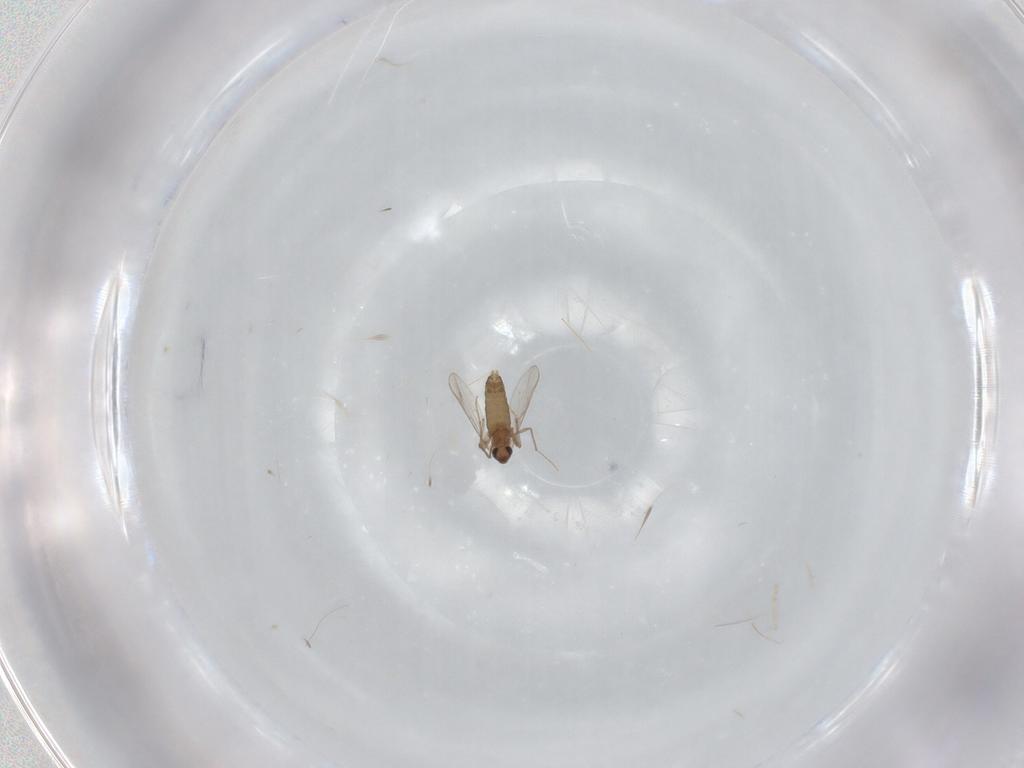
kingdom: Animalia
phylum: Arthropoda
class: Insecta
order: Diptera
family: Chironomidae
